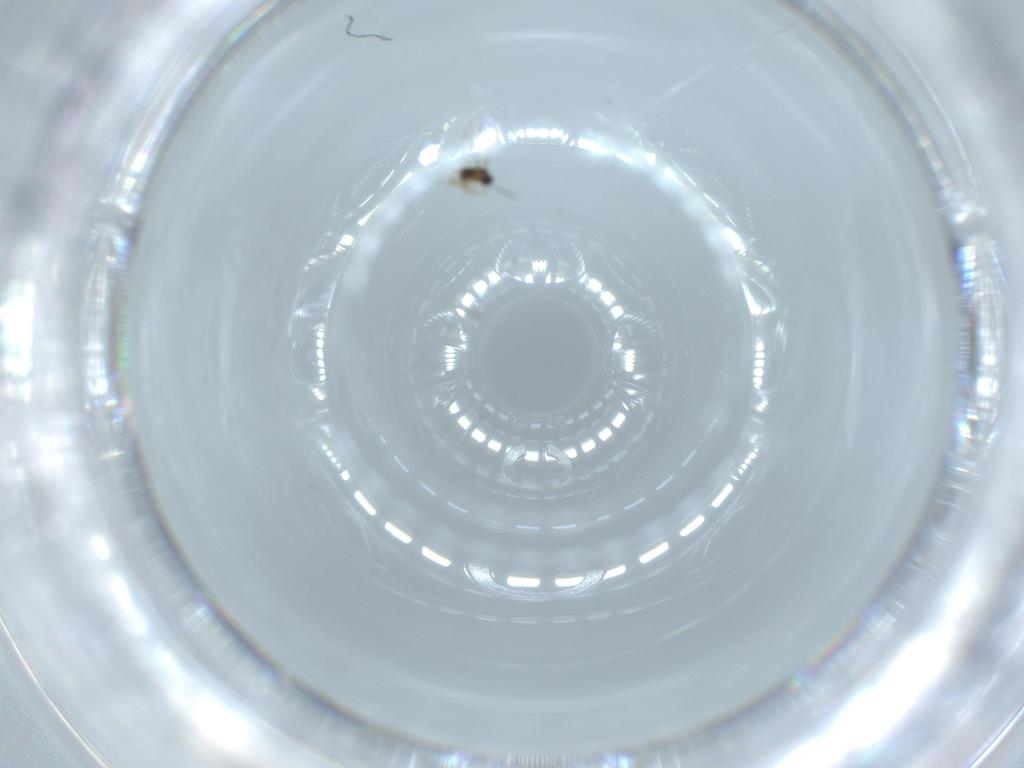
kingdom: Animalia
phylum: Arthropoda
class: Insecta
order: Hymenoptera
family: Mymaridae
